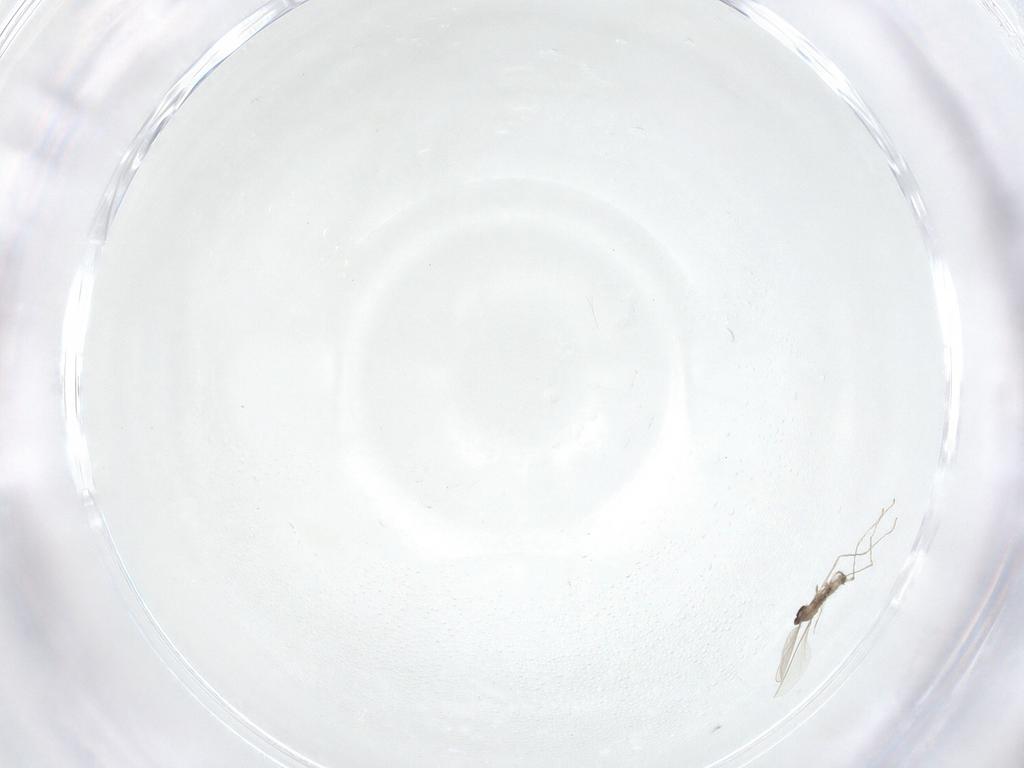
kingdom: Animalia
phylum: Arthropoda
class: Insecta
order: Diptera
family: Cecidomyiidae
